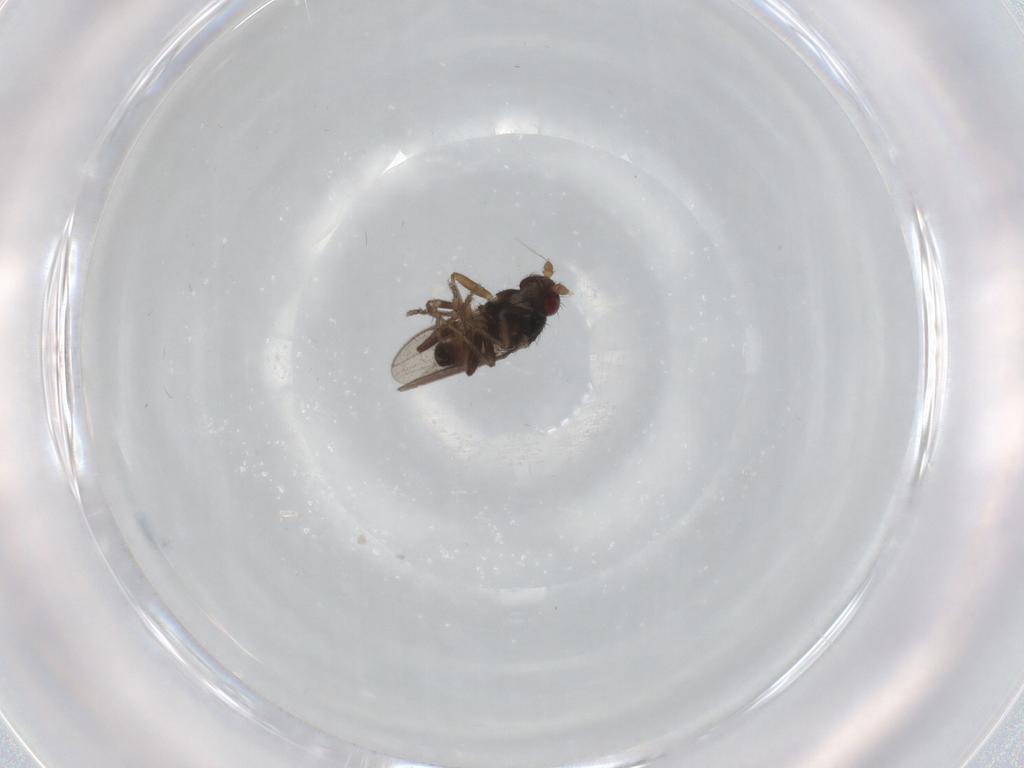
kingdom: Animalia
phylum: Arthropoda
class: Insecta
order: Diptera
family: Sphaeroceridae
